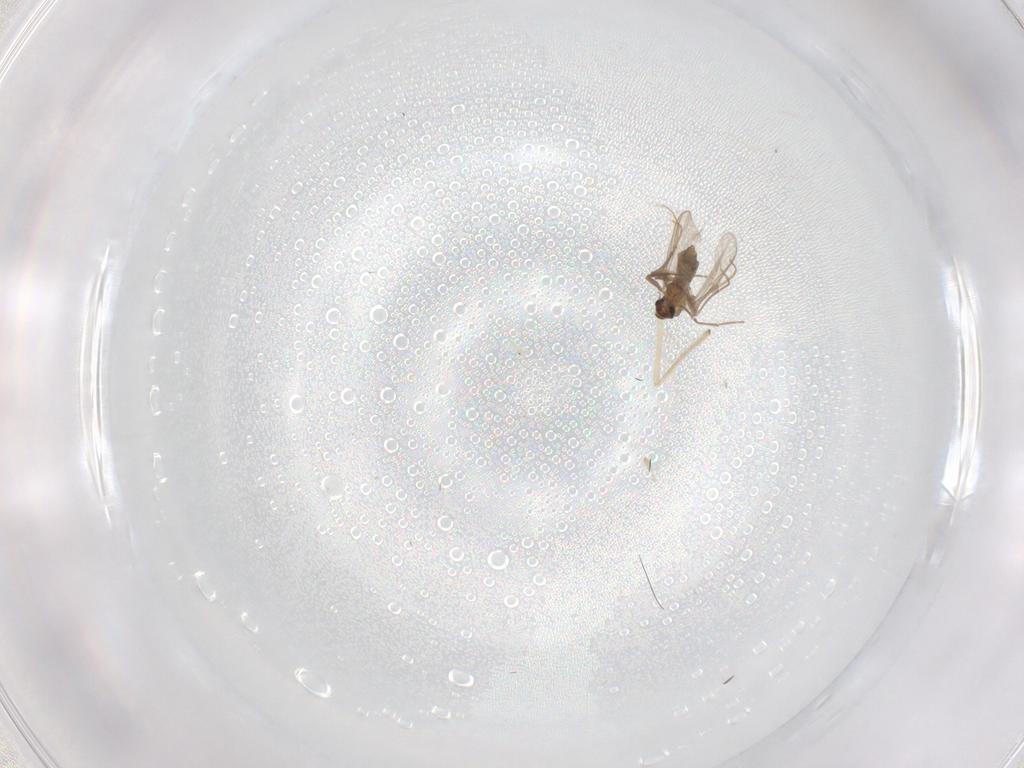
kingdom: Animalia
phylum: Arthropoda
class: Insecta
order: Diptera
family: Chironomidae
